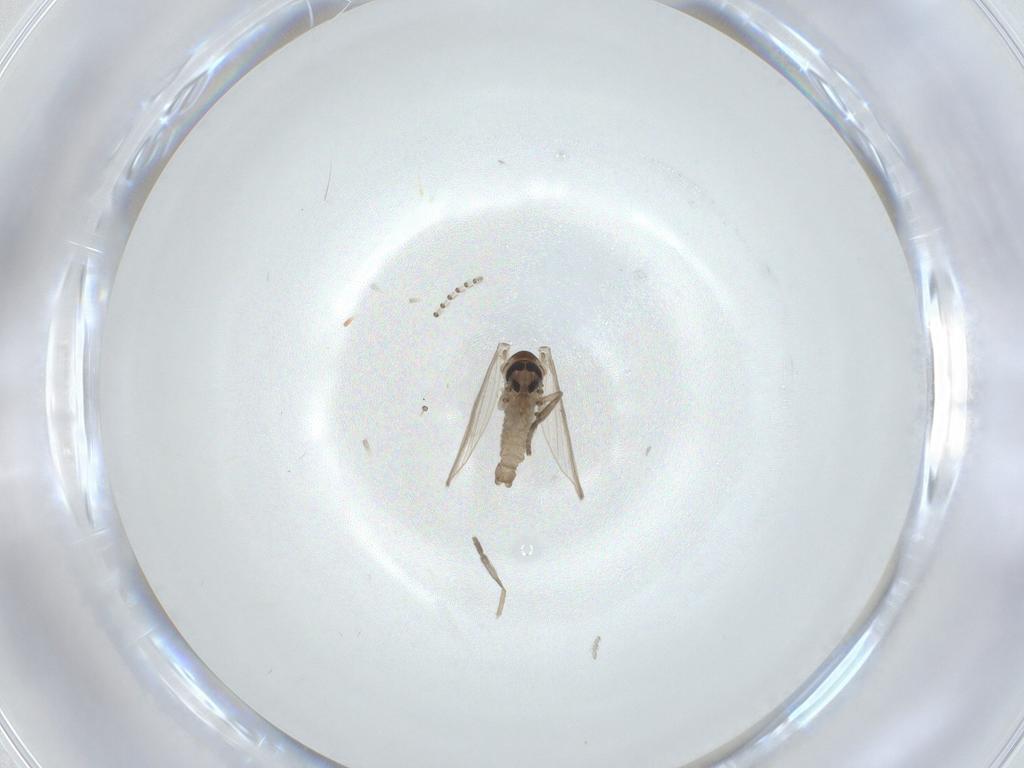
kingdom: Animalia
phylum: Arthropoda
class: Insecta
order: Diptera
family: Psychodidae
